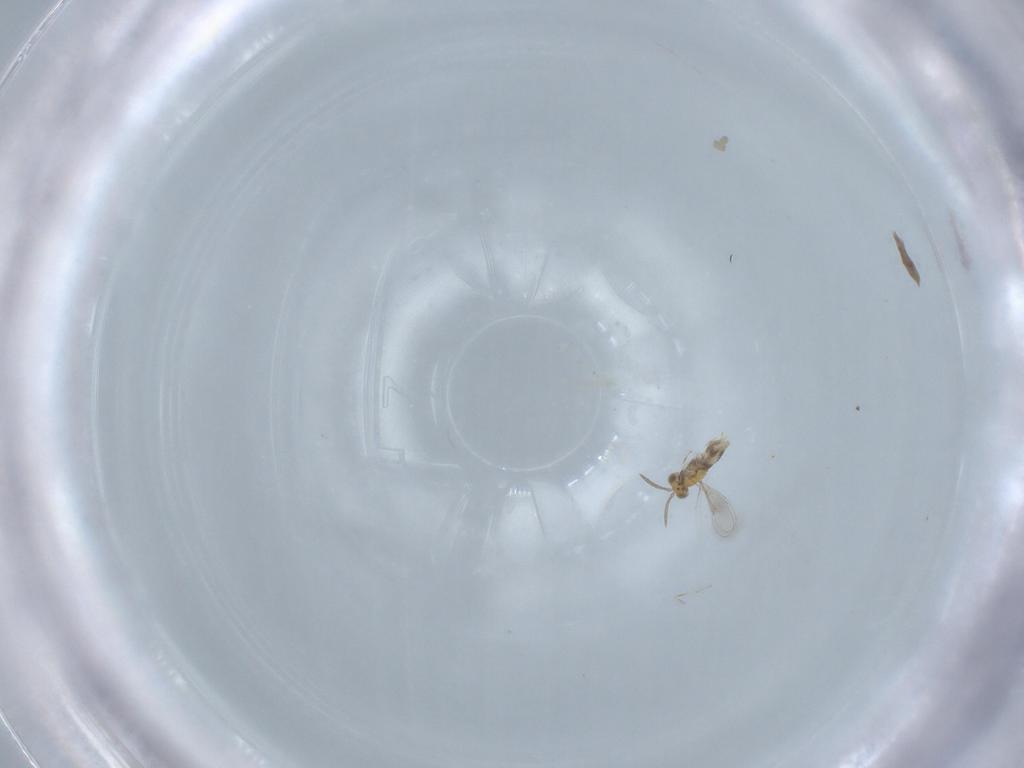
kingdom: Animalia
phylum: Arthropoda
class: Insecta
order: Hymenoptera
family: Aphelinidae
